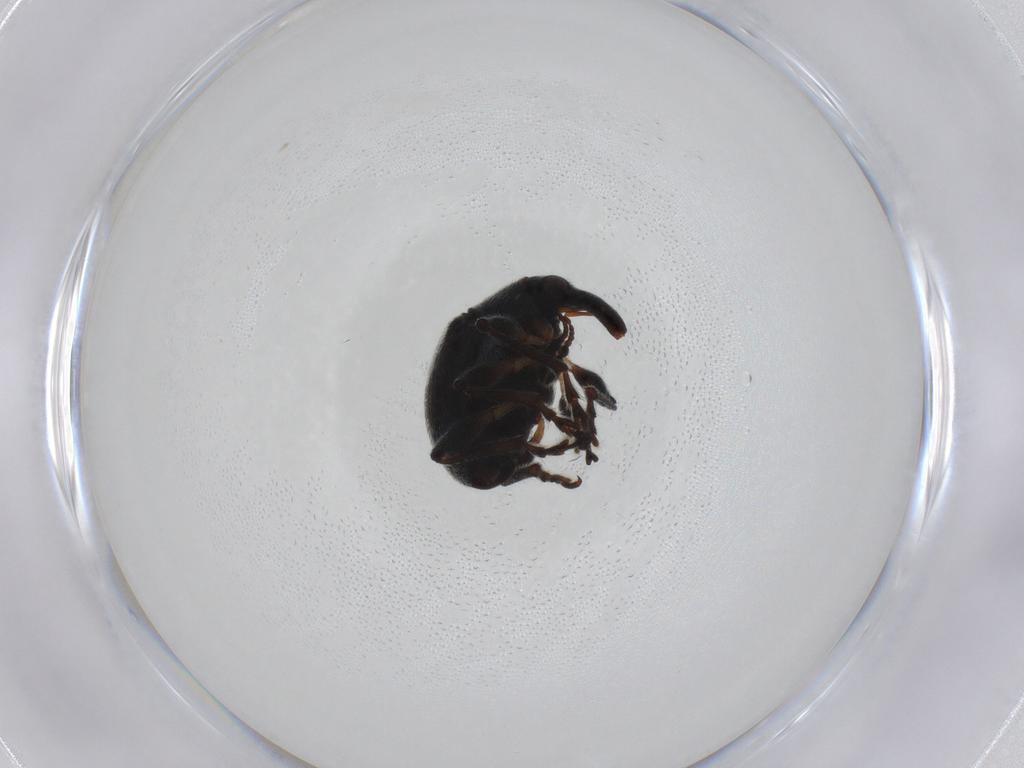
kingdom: Animalia
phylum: Arthropoda
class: Insecta
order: Coleoptera
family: Brentidae
